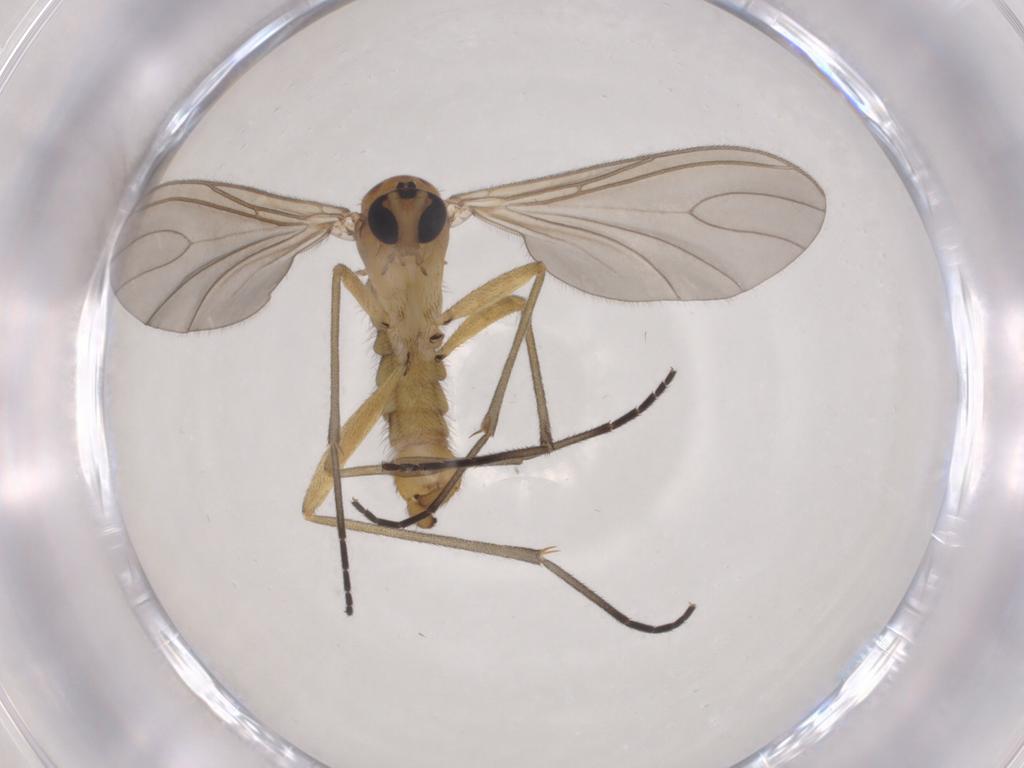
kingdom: Animalia
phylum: Arthropoda
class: Insecta
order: Diptera
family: Sciaridae
